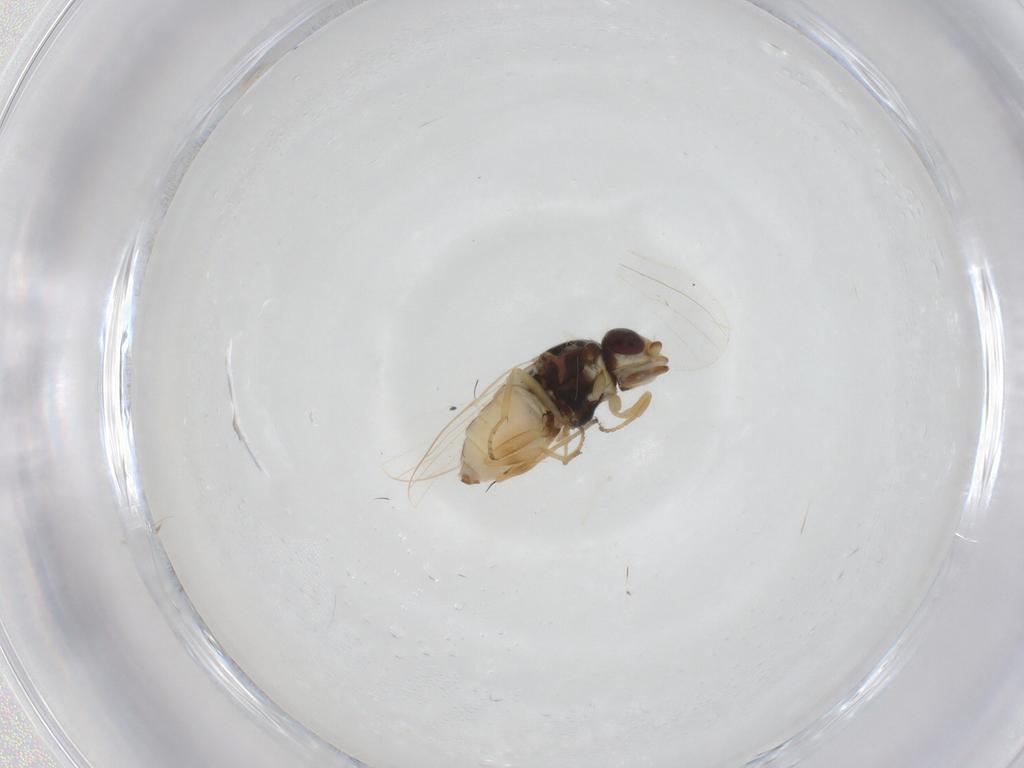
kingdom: Animalia
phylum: Arthropoda
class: Insecta
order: Diptera
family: Chloropidae
